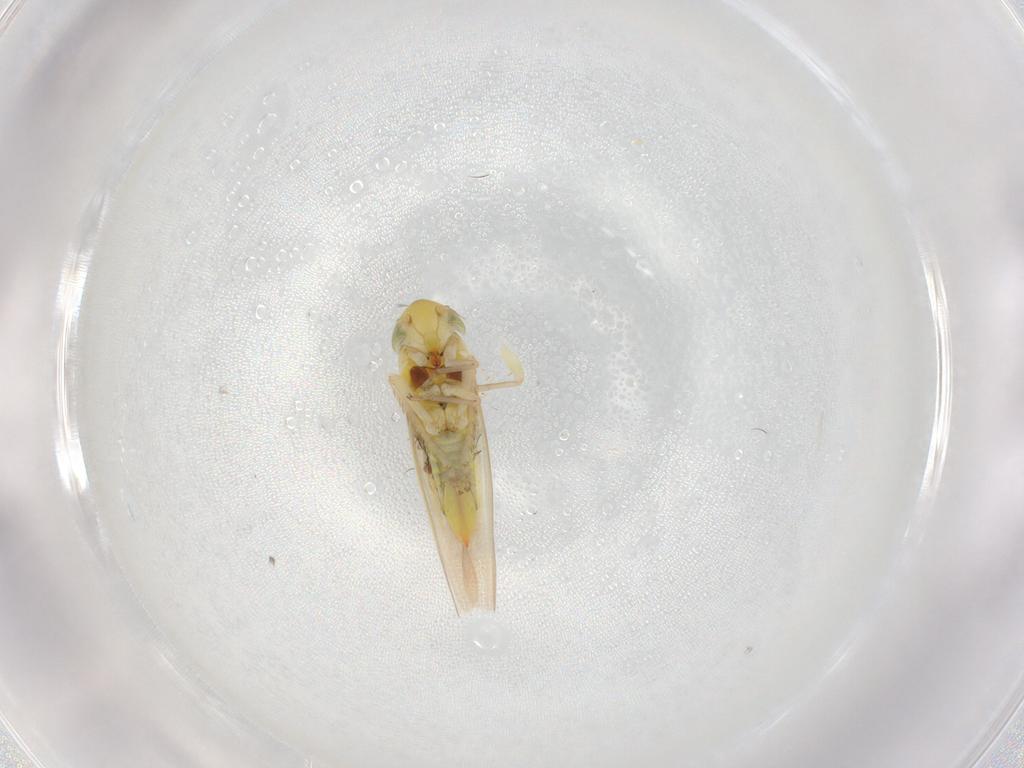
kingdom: Animalia
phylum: Arthropoda
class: Insecta
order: Hemiptera
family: Cicadellidae
